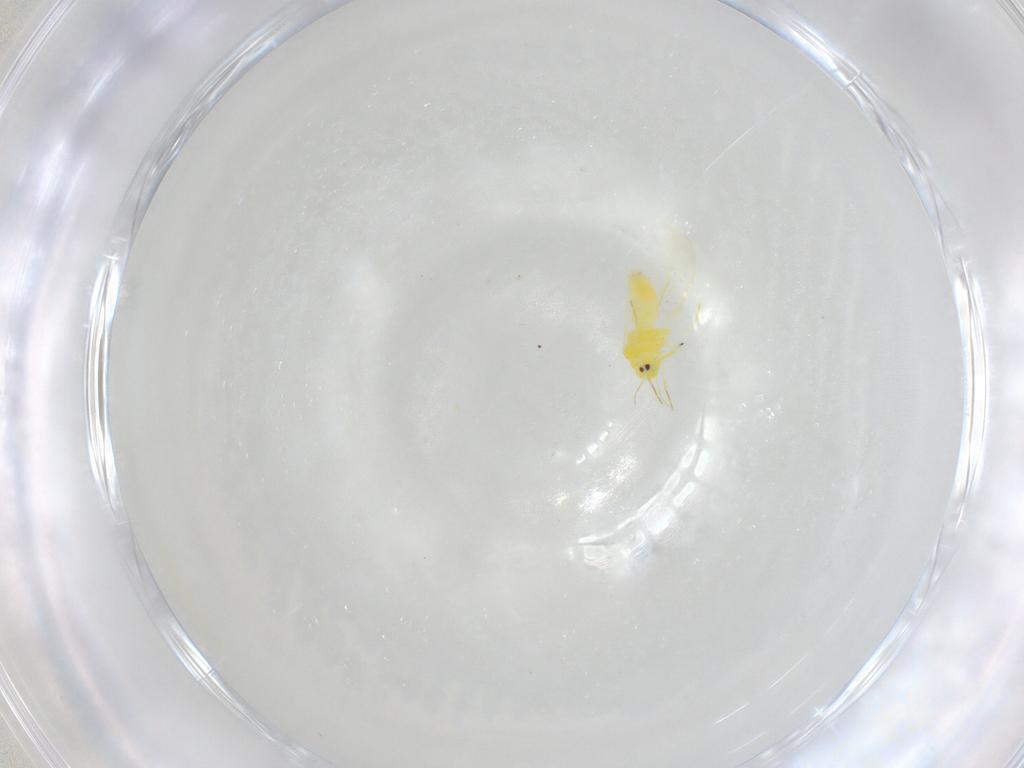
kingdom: Animalia
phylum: Arthropoda
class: Insecta
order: Hemiptera
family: Aleyrodidae
